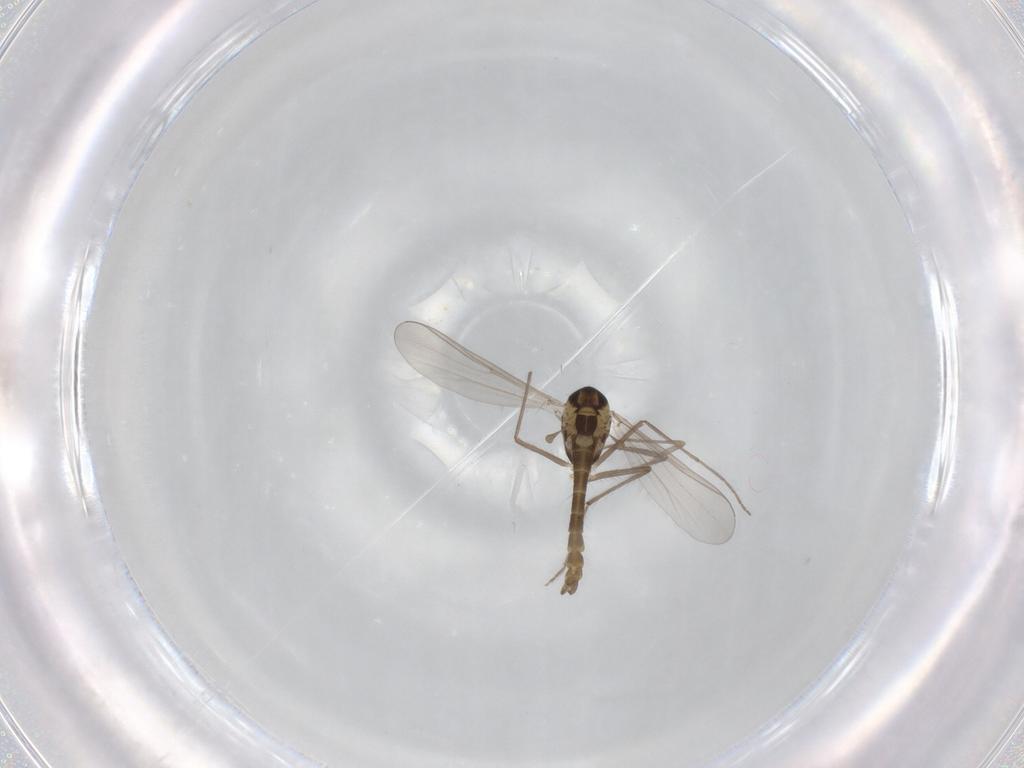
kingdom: Animalia
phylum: Arthropoda
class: Insecta
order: Diptera
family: Chironomidae
